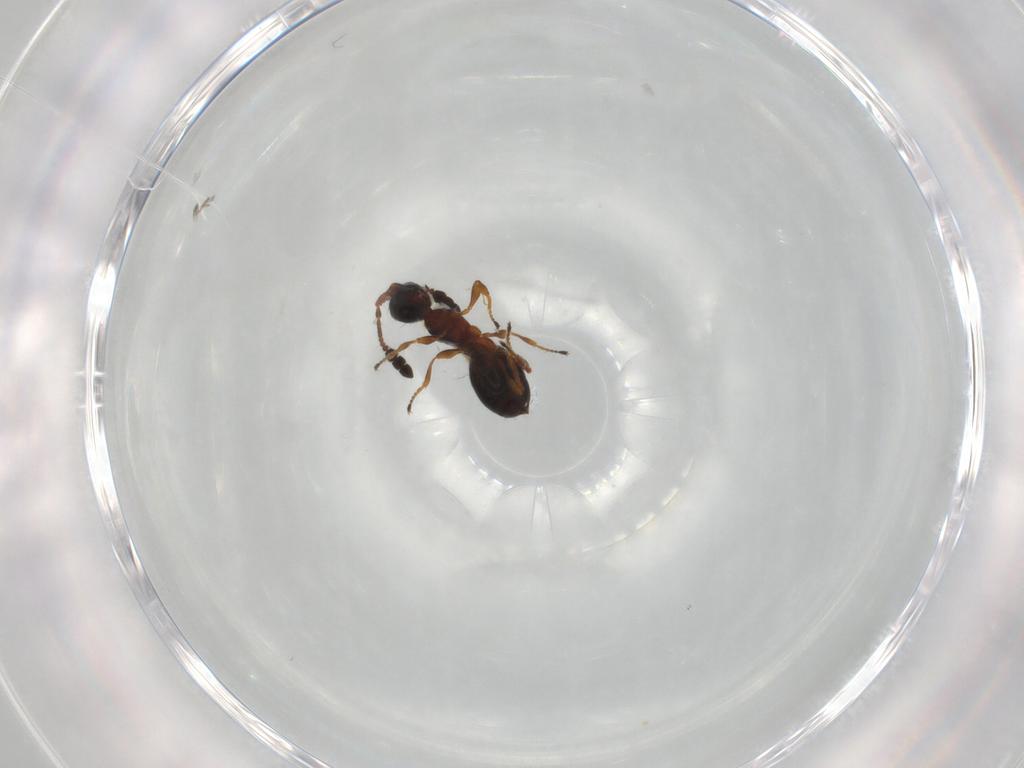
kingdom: Animalia
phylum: Arthropoda
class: Insecta
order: Hymenoptera
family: Diapriidae
